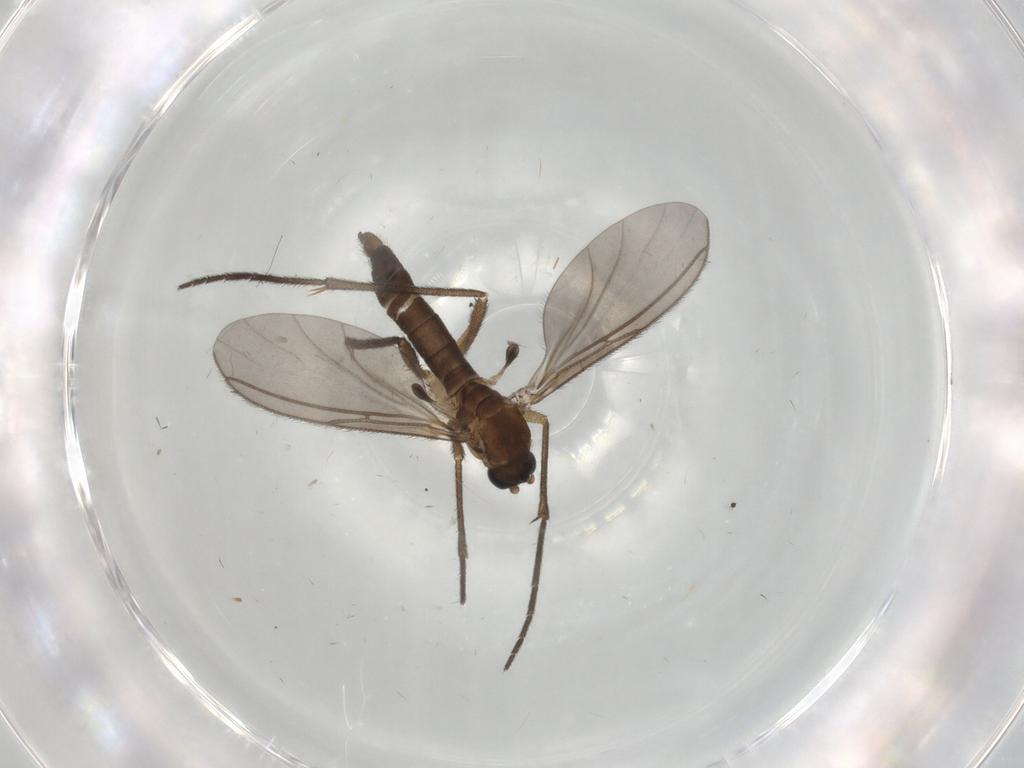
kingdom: Animalia
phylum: Arthropoda
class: Insecta
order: Diptera
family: Sciaridae
